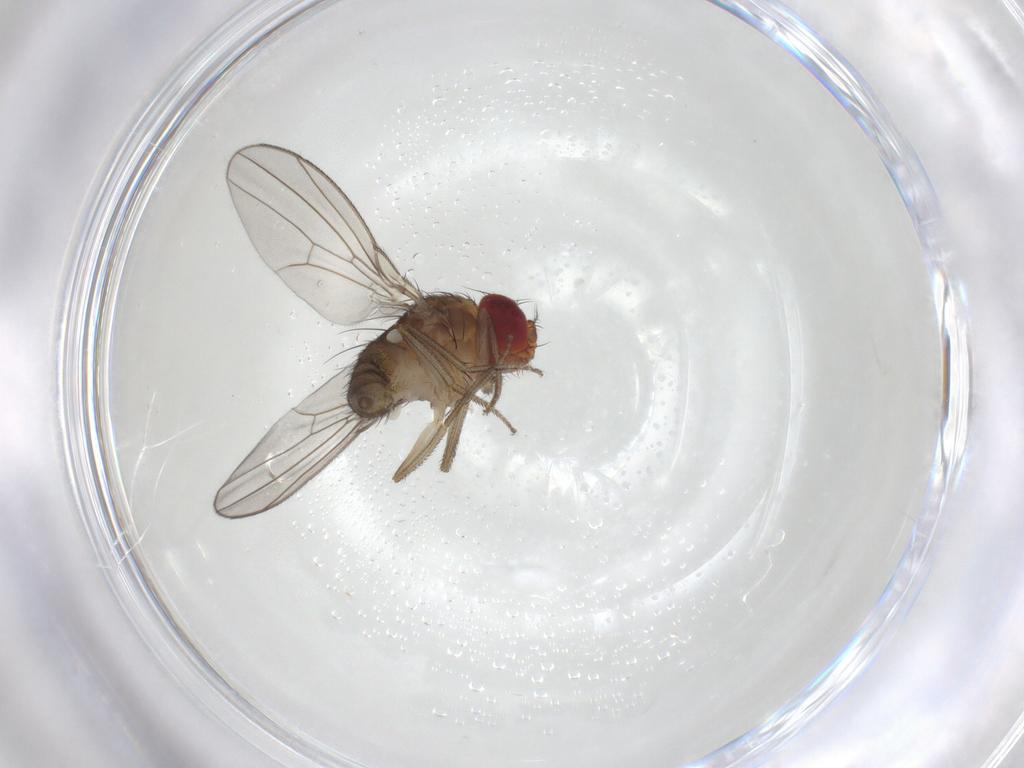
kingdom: Animalia
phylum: Arthropoda
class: Insecta
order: Diptera
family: Drosophilidae
